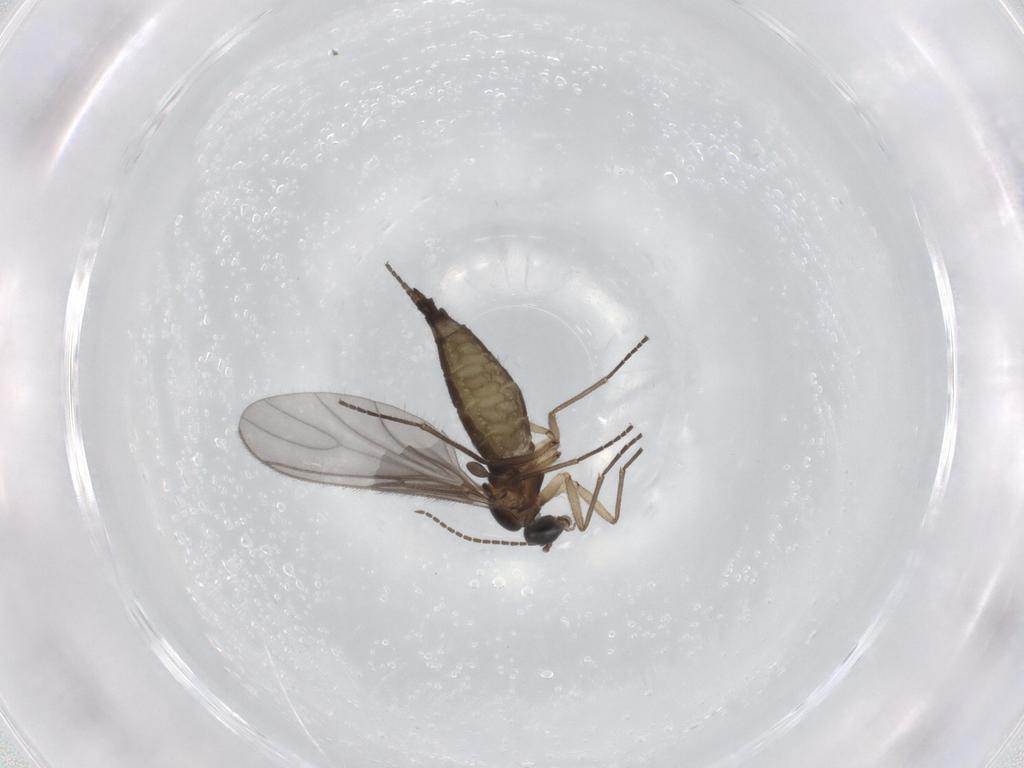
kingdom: Animalia
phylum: Arthropoda
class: Insecta
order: Diptera
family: Sciaridae
